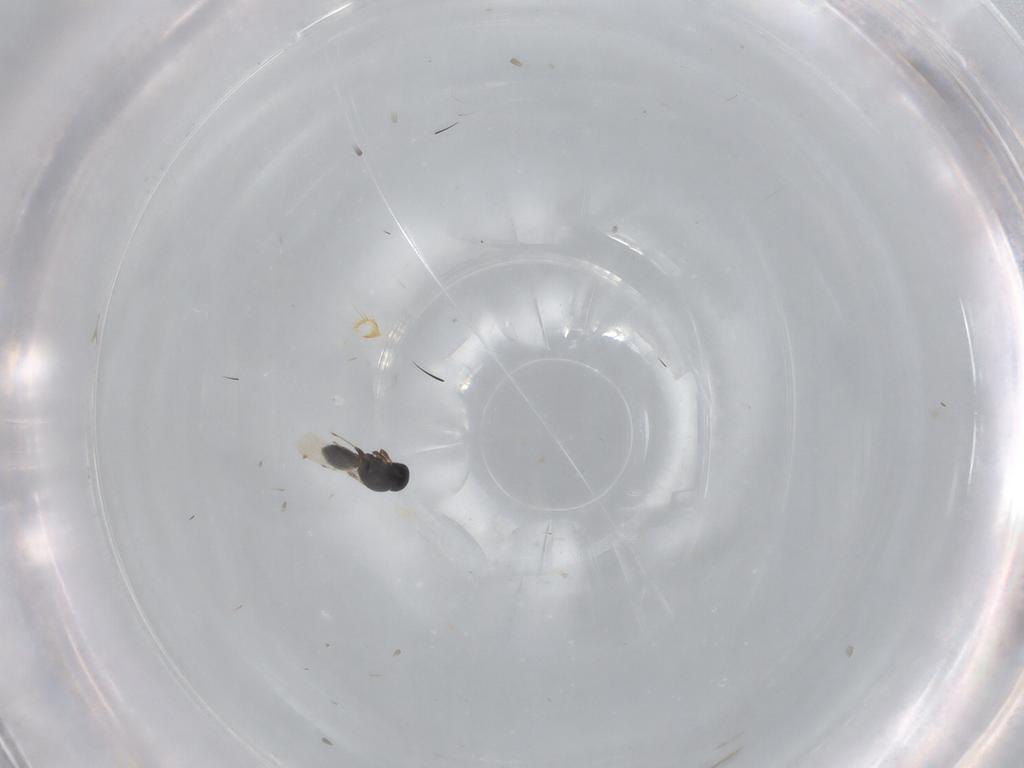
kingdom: Animalia
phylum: Arthropoda
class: Insecta
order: Hymenoptera
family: Platygastridae
